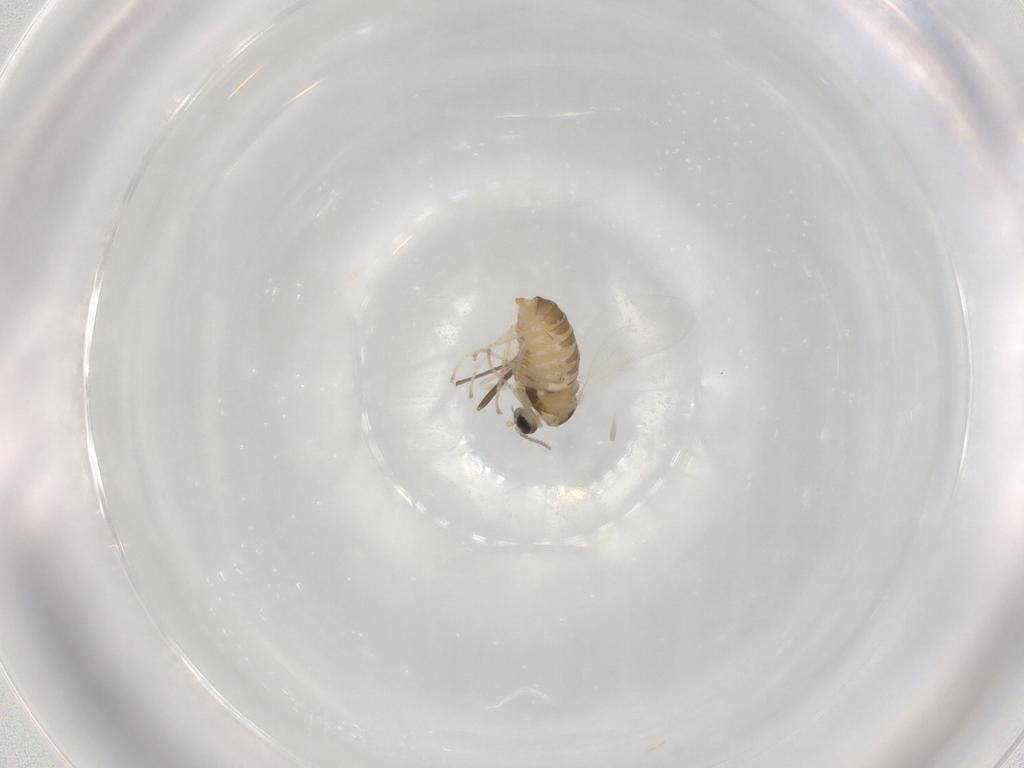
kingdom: Animalia
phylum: Arthropoda
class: Insecta
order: Diptera
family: Cecidomyiidae
